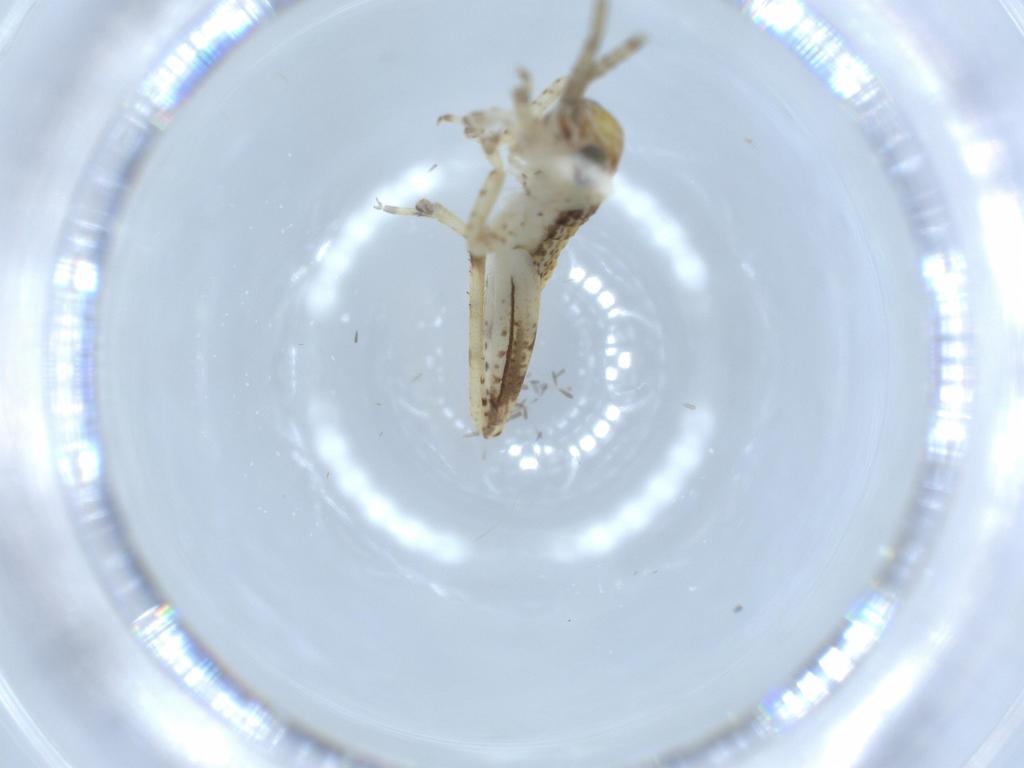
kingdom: Animalia
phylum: Arthropoda
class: Insecta
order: Orthoptera
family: Gryllidae
